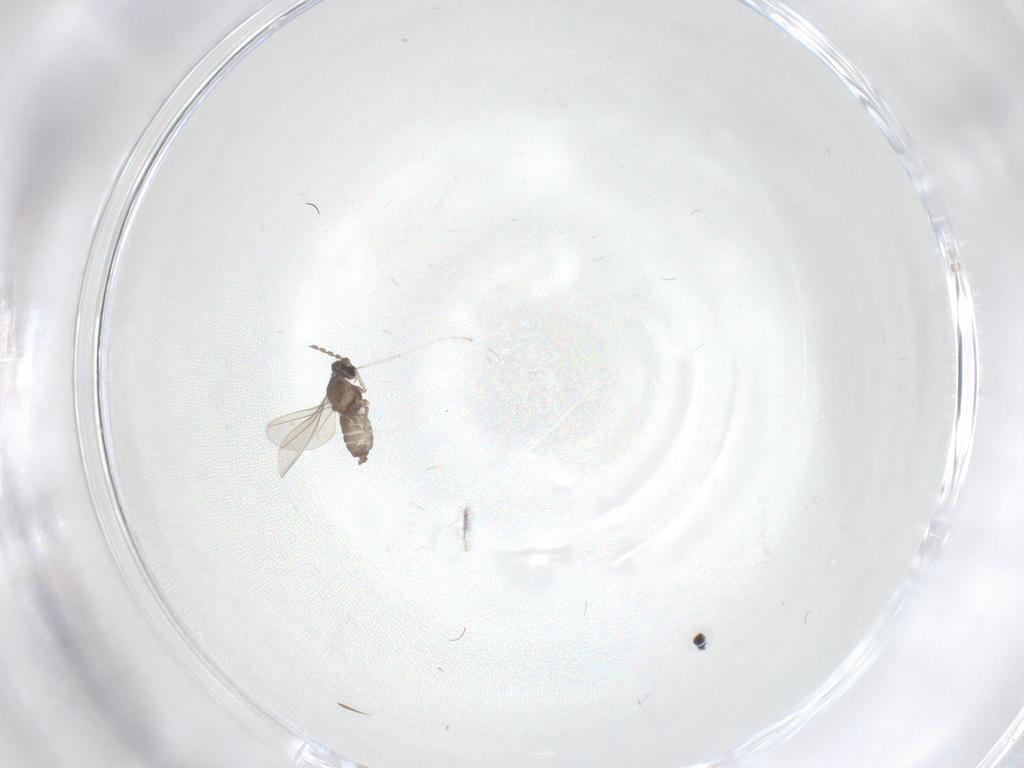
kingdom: Animalia
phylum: Arthropoda
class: Insecta
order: Diptera
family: Cecidomyiidae
